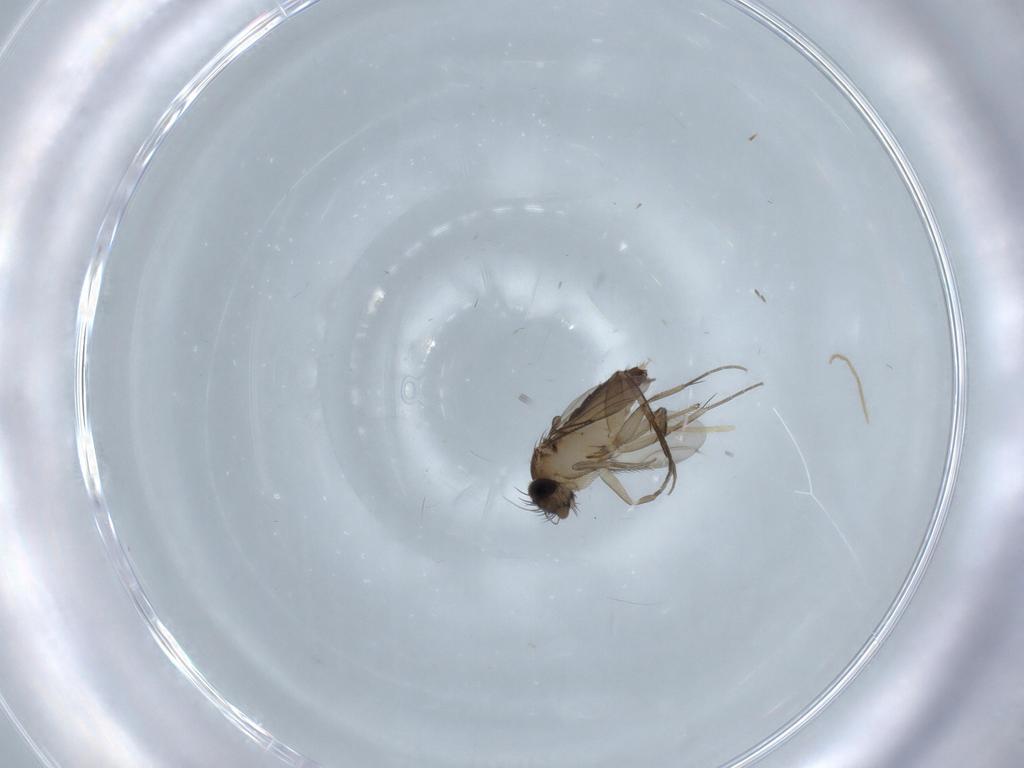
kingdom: Animalia
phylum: Arthropoda
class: Insecta
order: Diptera
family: Phoridae
